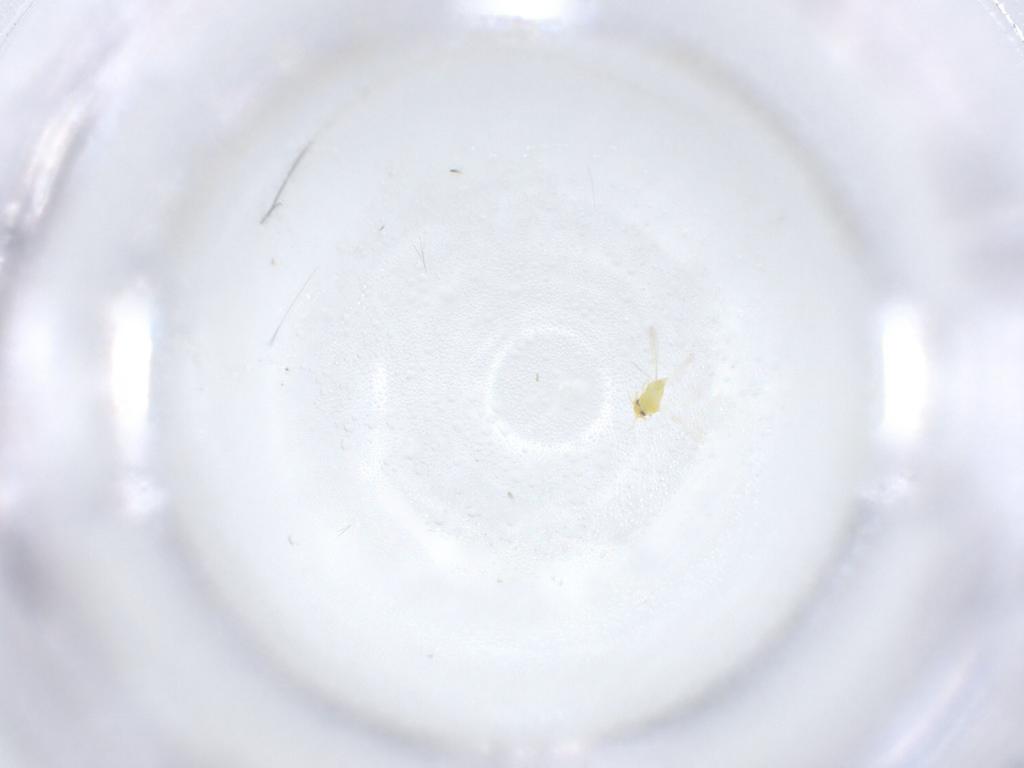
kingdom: Animalia
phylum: Arthropoda
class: Insecta
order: Hemiptera
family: Aleyrodidae
